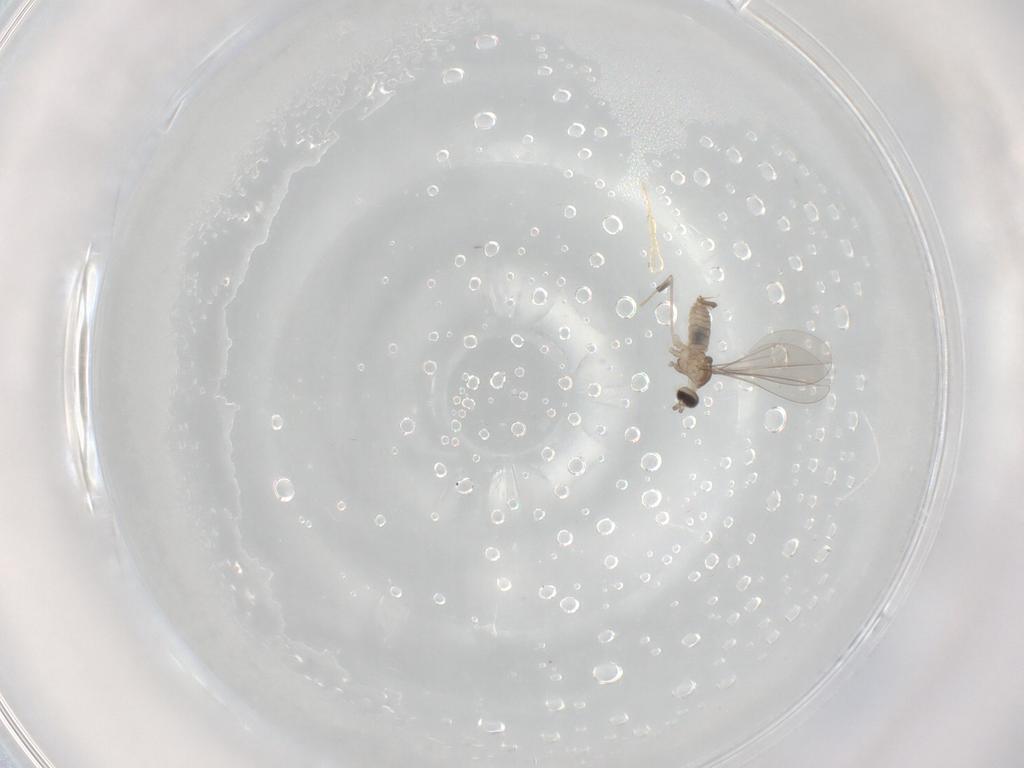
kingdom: Animalia
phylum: Arthropoda
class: Insecta
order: Diptera
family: Cecidomyiidae
